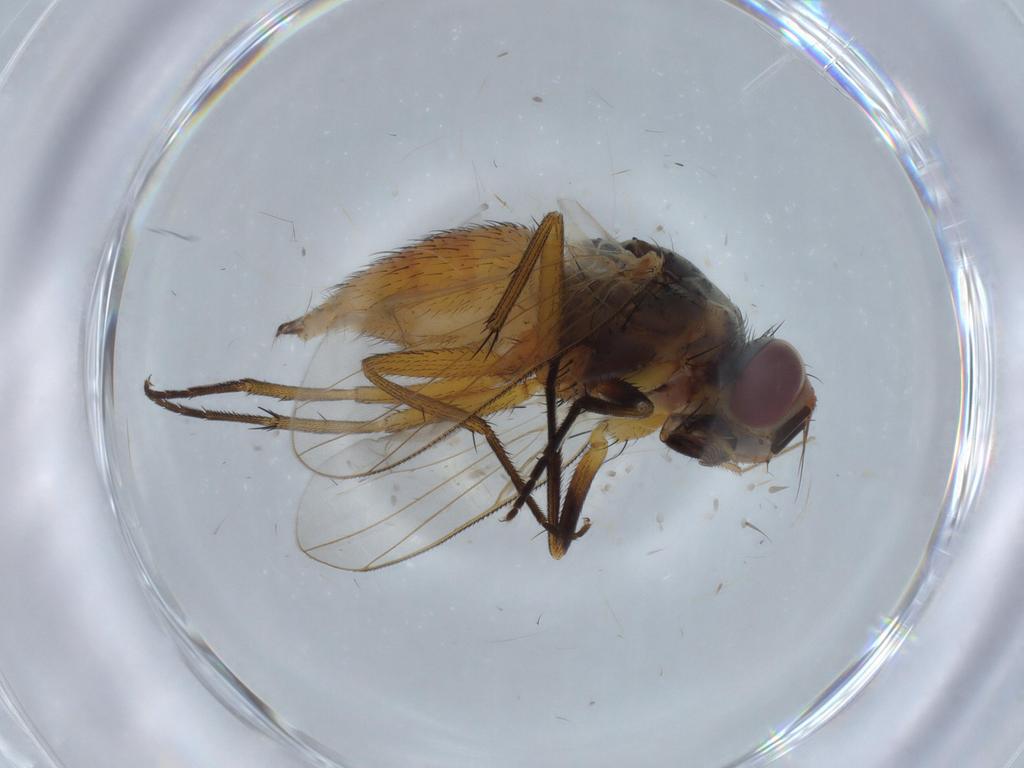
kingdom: Animalia
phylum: Arthropoda
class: Insecta
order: Diptera
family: Muscidae
